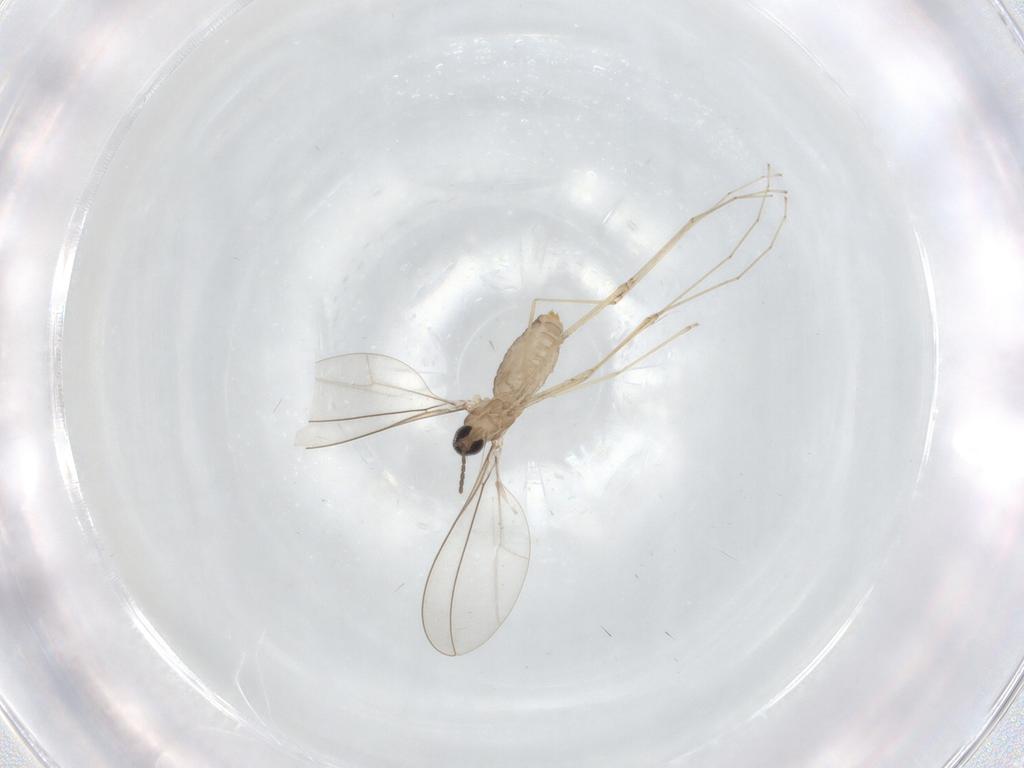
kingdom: Animalia
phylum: Arthropoda
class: Insecta
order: Diptera
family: Cecidomyiidae
